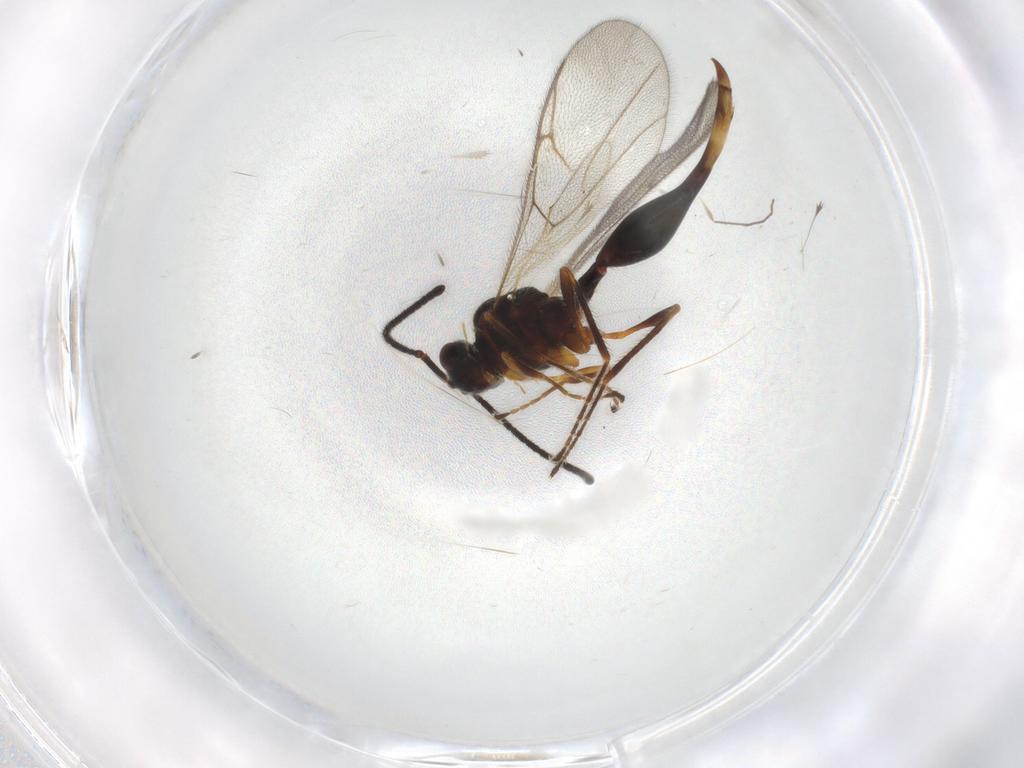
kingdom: Animalia
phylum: Arthropoda
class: Insecta
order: Hymenoptera
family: Diapriidae
